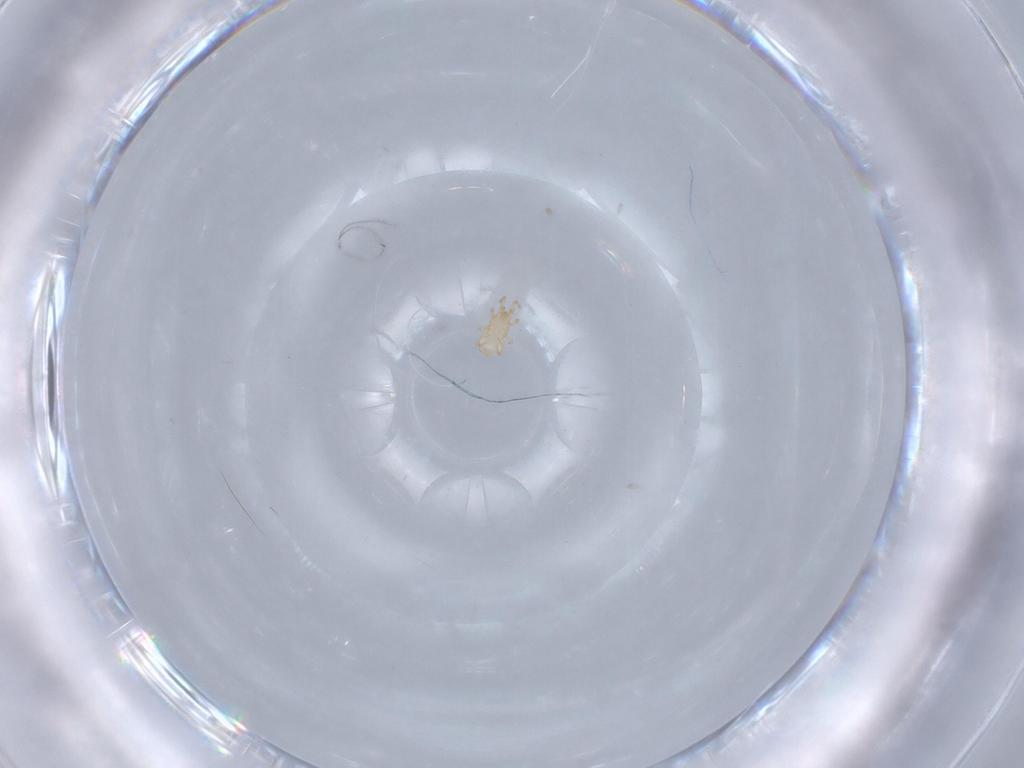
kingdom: Animalia
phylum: Arthropoda
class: Arachnida
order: Mesostigmata
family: Ascidae
